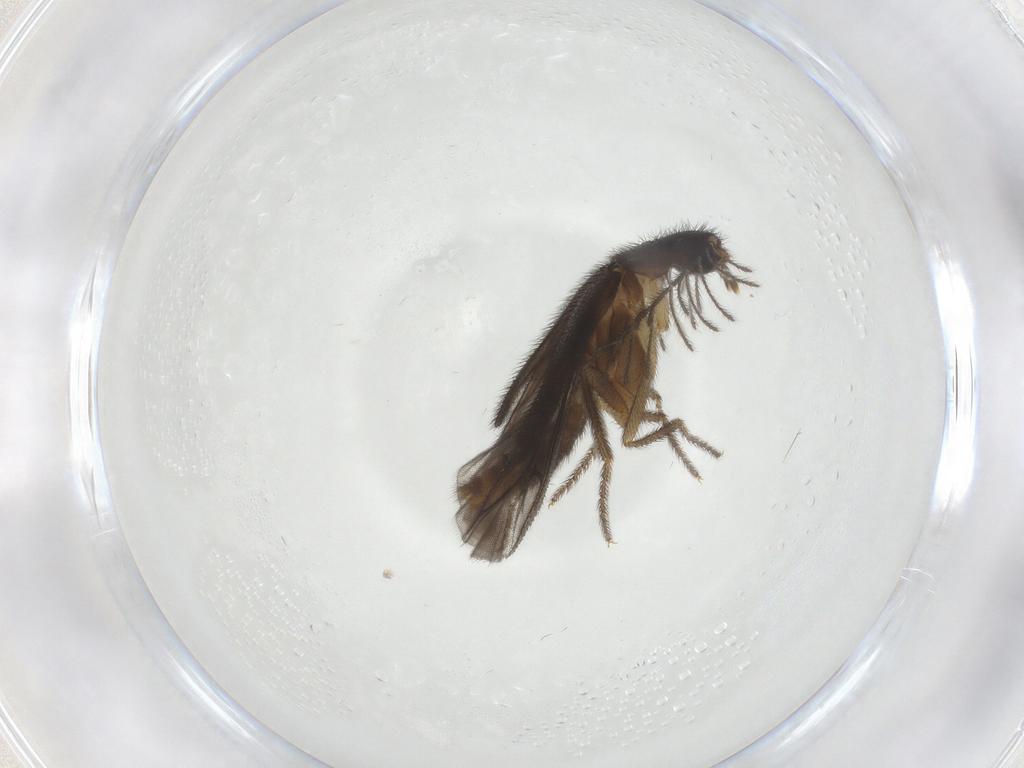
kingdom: Animalia
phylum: Arthropoda
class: Insecta
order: Coleoptera
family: Phengodidae
